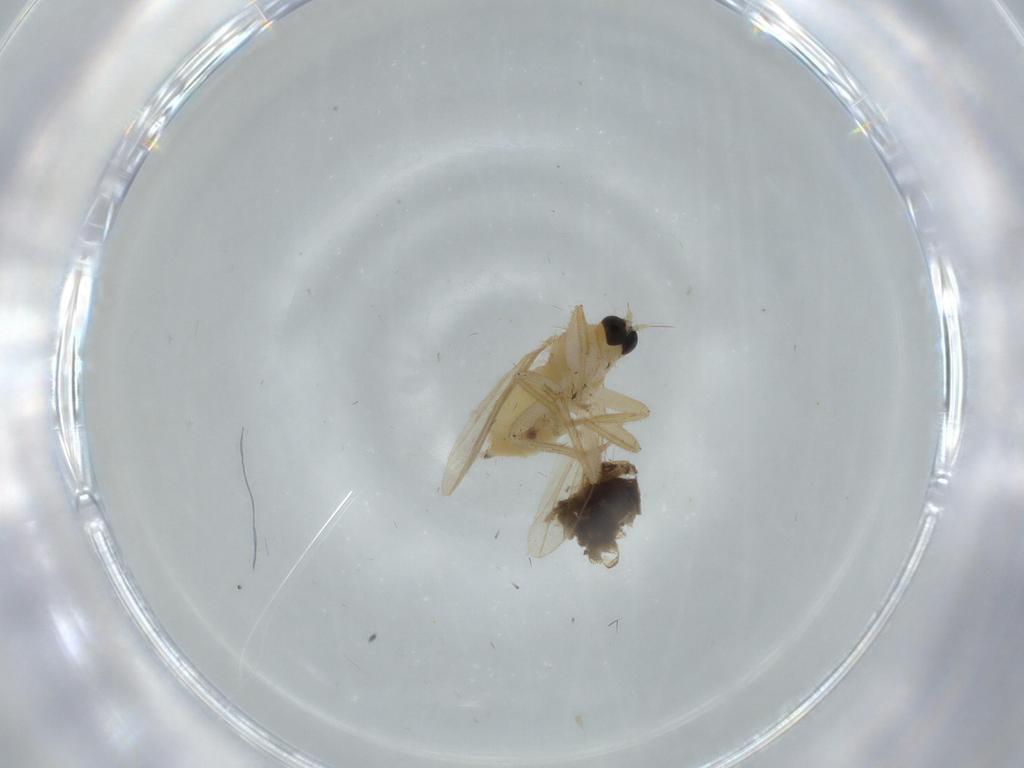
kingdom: Animalia
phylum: Arthropoda
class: Insecta
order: Diptera
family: Hybotidae
